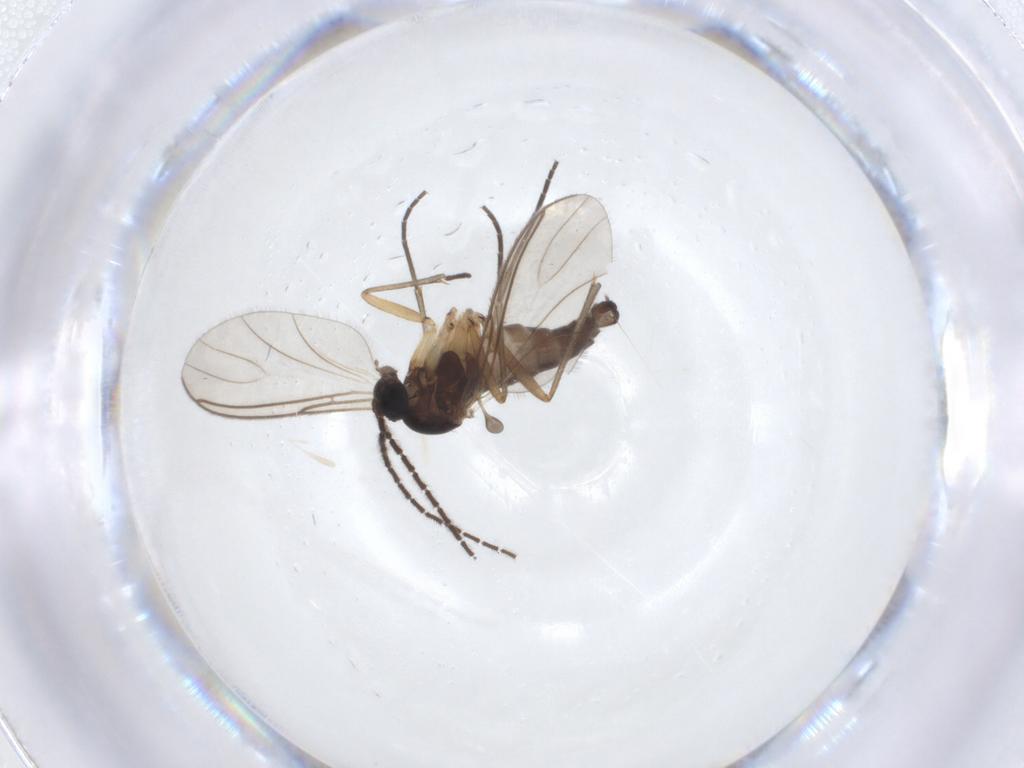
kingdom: Animalia
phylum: Arthropoda
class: Insecta
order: Diptera
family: Sciaridae
